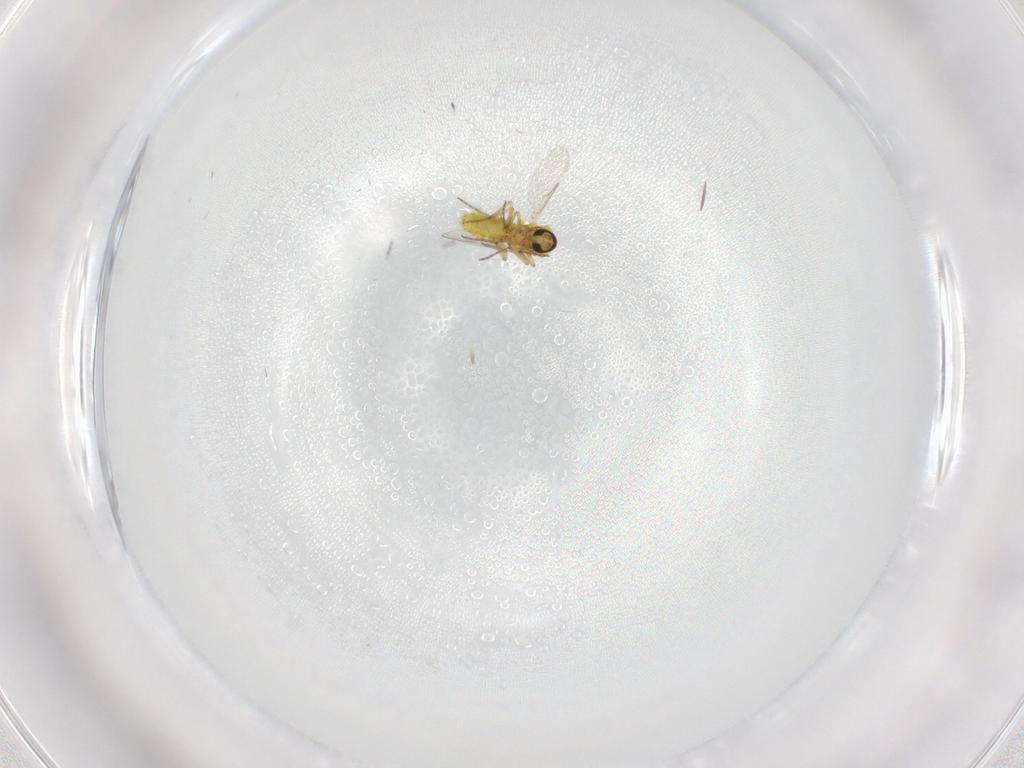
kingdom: Animalia
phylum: Arthropoda
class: Insecta
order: Diptera
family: Ceratopogonidae
